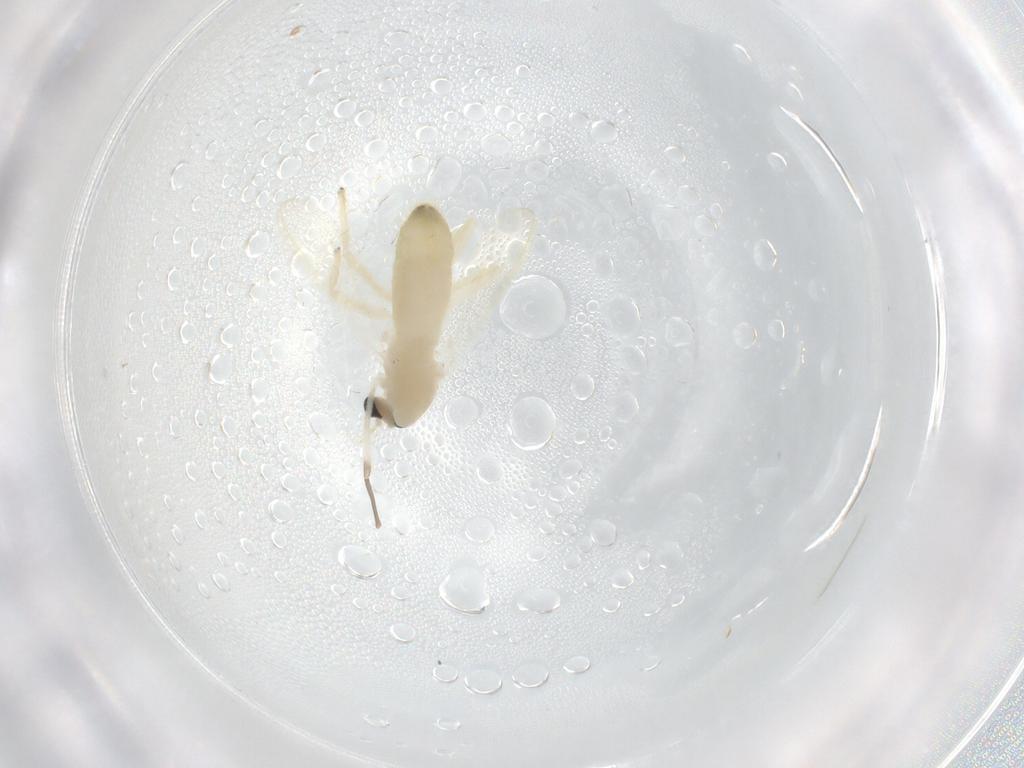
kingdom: Animalia
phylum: Arthropoda
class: Insecta
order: Diptera
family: Chironomidae
